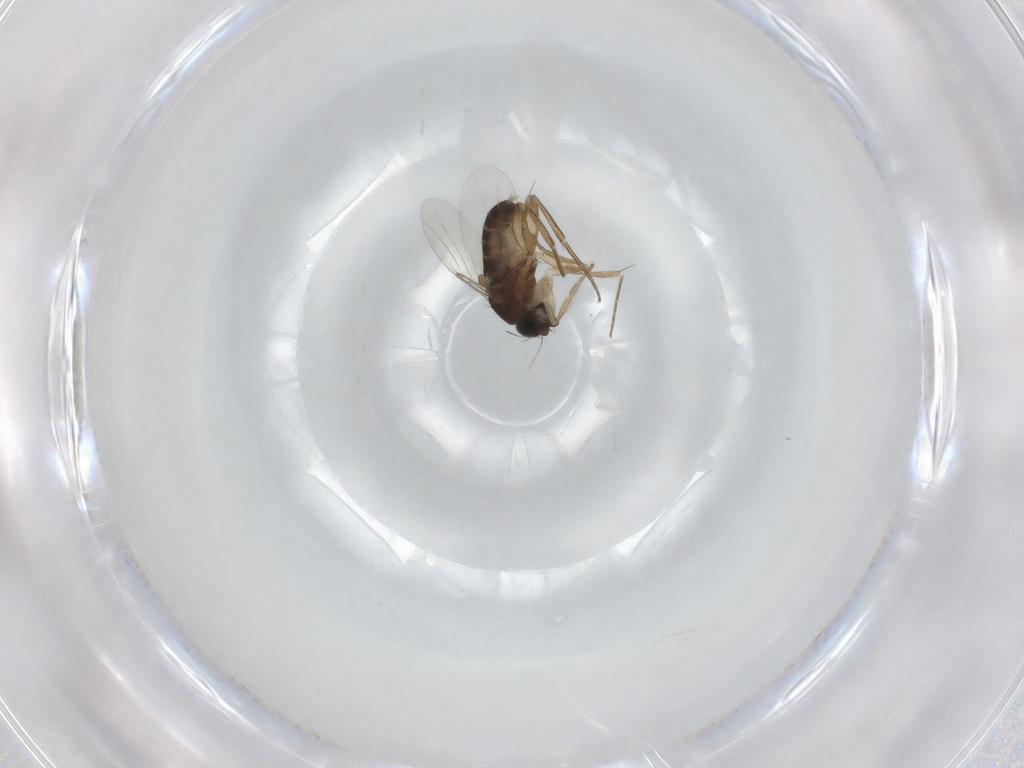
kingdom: Animalia
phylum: Arthropoda
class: Insecta
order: Diptera
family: Phoridae
